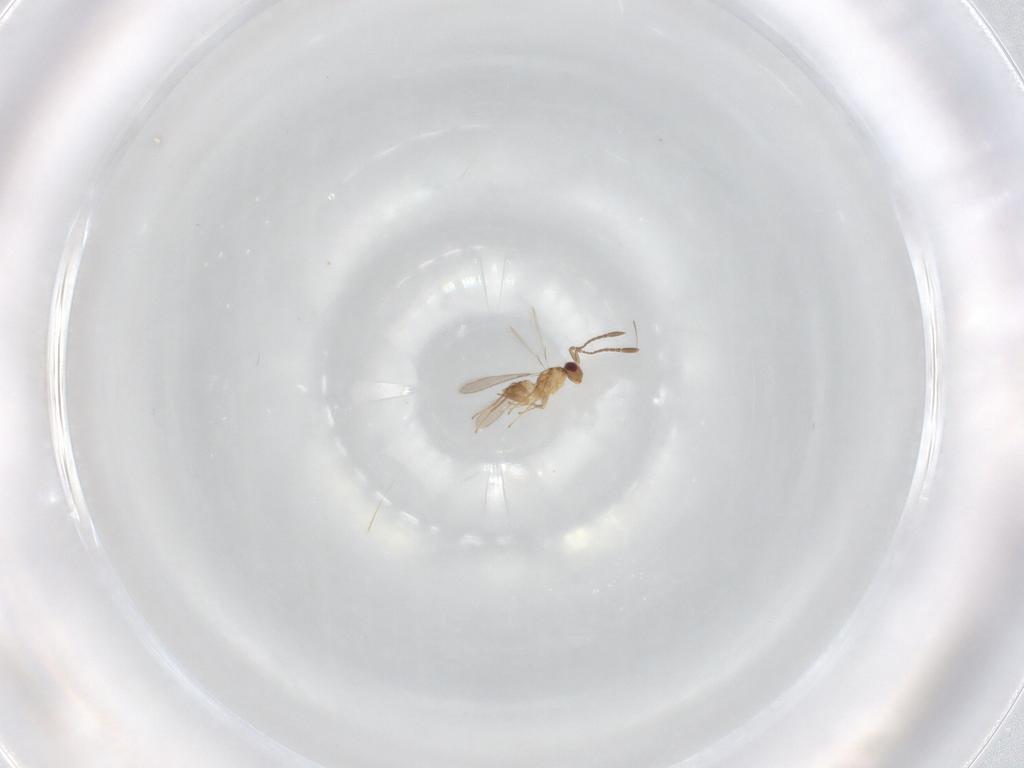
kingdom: Animalia
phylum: Arthropoda
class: Insecta
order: Hymenoptera
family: Mymaridae
